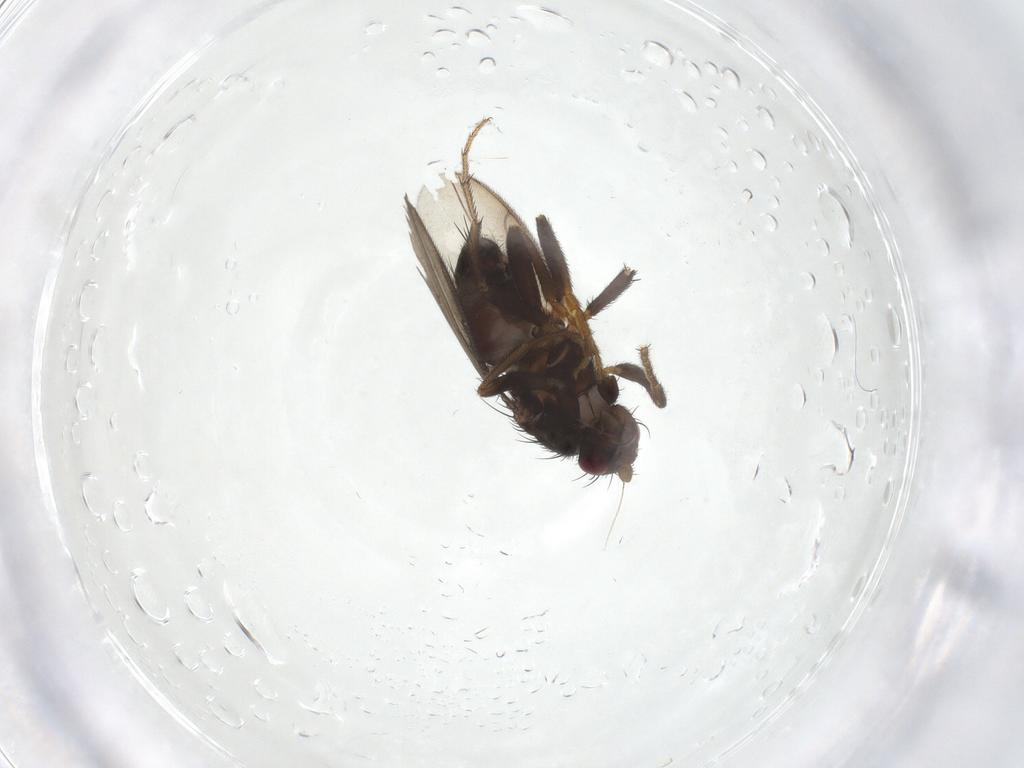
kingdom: Animalia
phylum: Arthropoda
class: Insecta
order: Diptera
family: Sphaeroceridae
